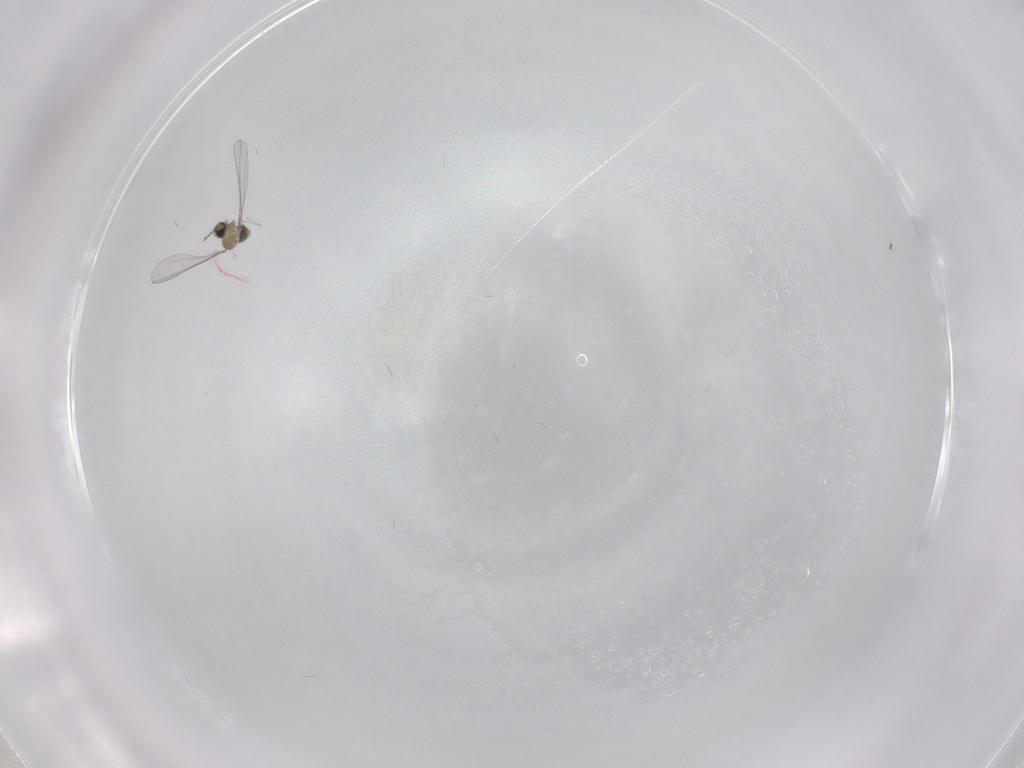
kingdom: Animalia
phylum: Arthropoda
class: Insecta
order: Diptera
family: Cecidomyiidae
